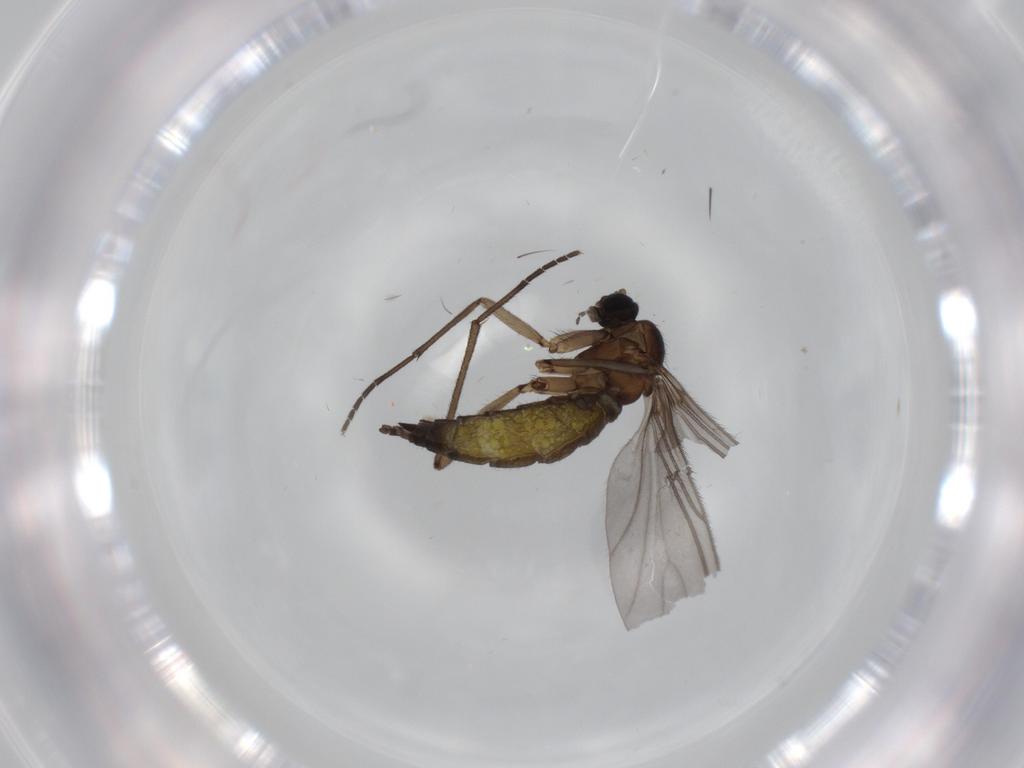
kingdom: Animalia
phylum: Arthropoda
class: Insecta
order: Diptera
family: Sciaridae
